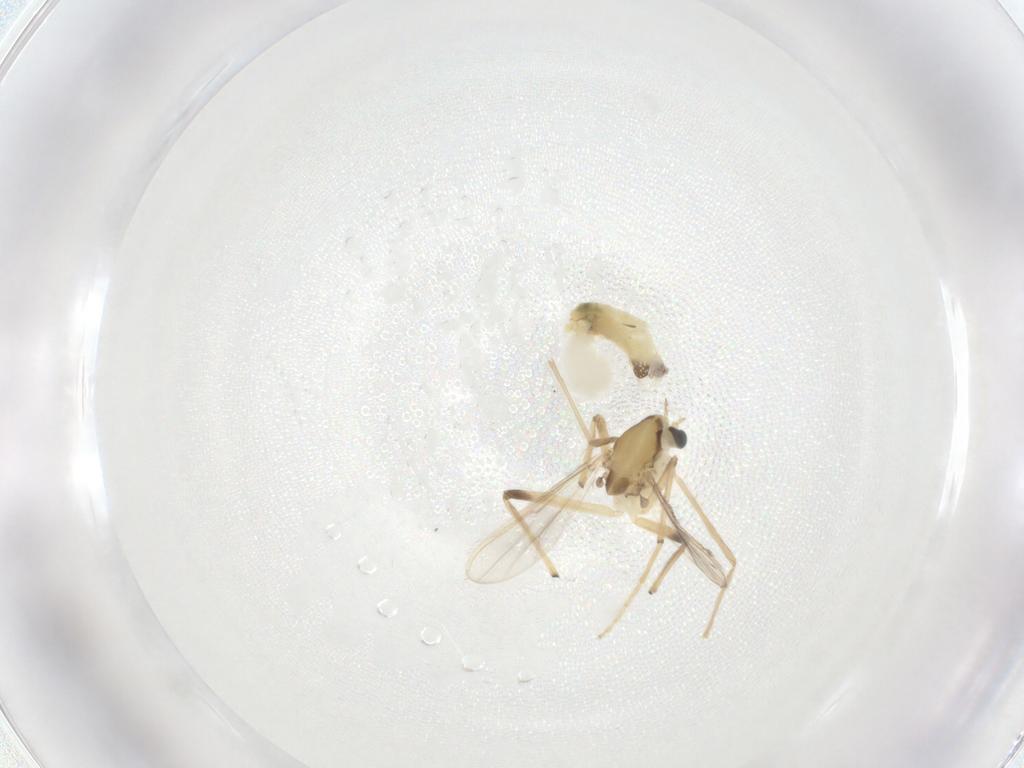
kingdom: Animalia
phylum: Arthropoda
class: Insecta
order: Diptera
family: Chironomidae
